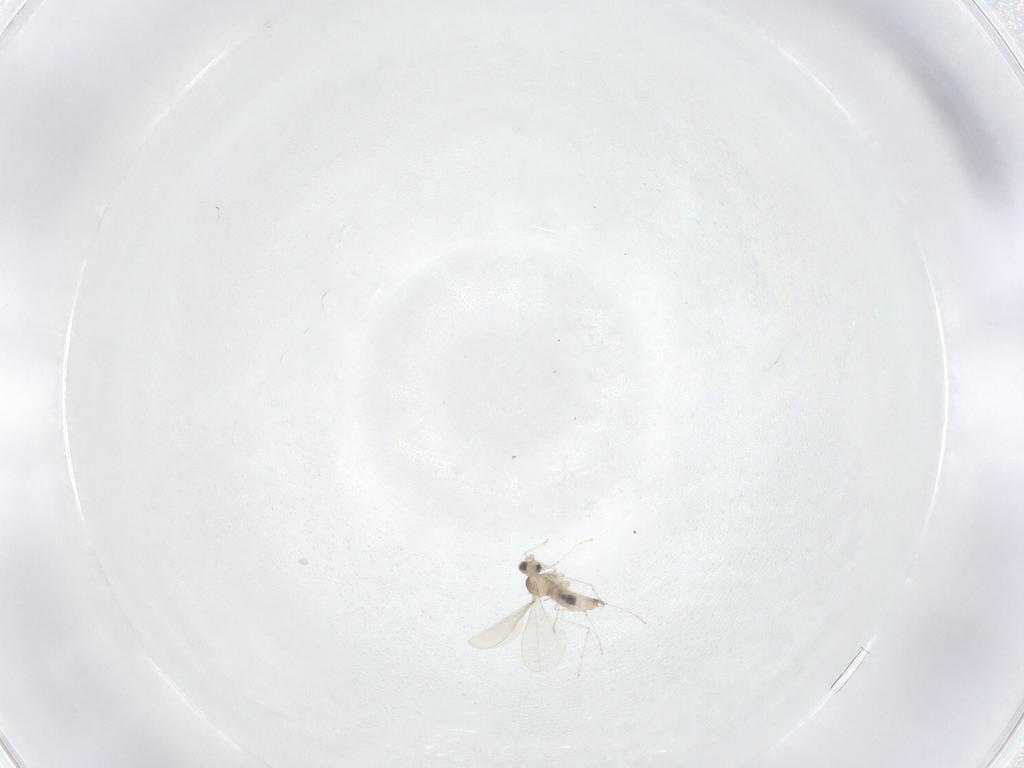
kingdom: Animalia
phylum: Arthropoda
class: Insecta
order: Diptera
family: Cecidomyiidae
